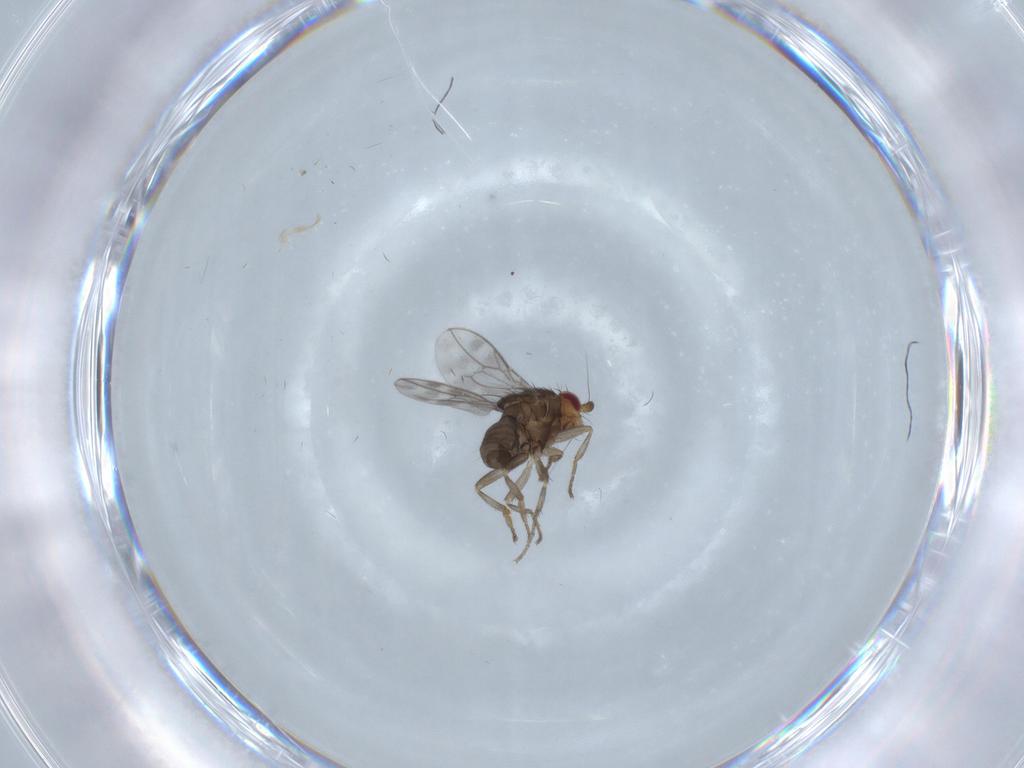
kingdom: Animalia
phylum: Arthropoda
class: Insecta
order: Diptera
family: Sphaeroceridae
